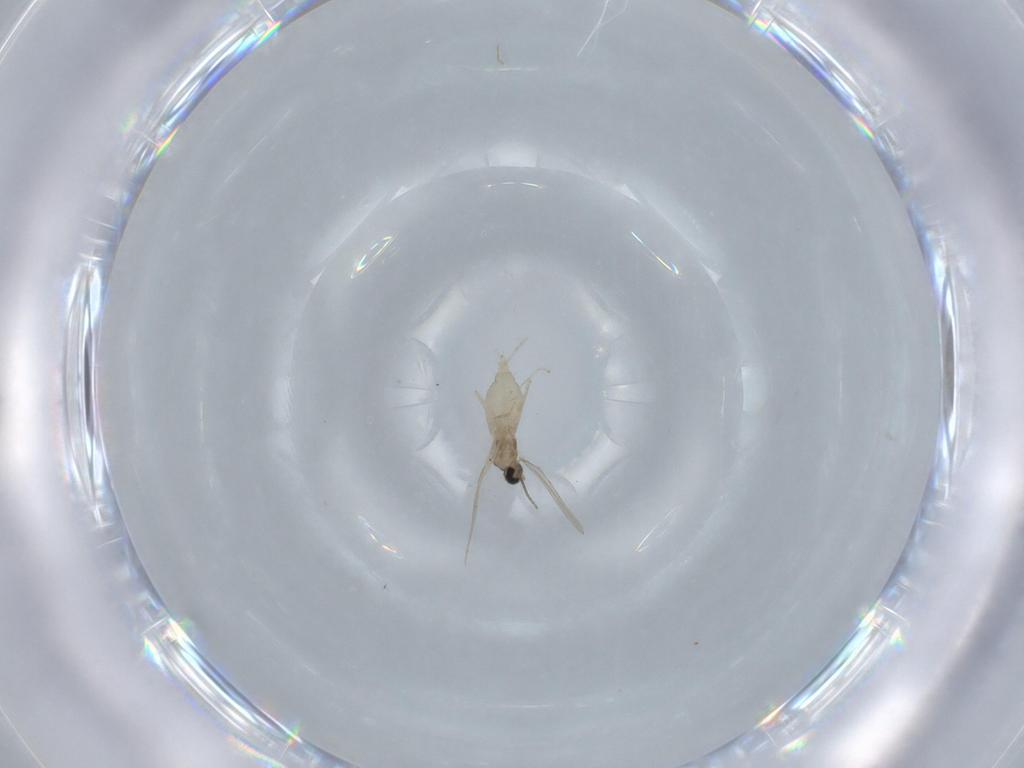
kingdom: Animalia
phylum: Arthropoda
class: Insecta
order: Diptera
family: Cecidomyiidae
